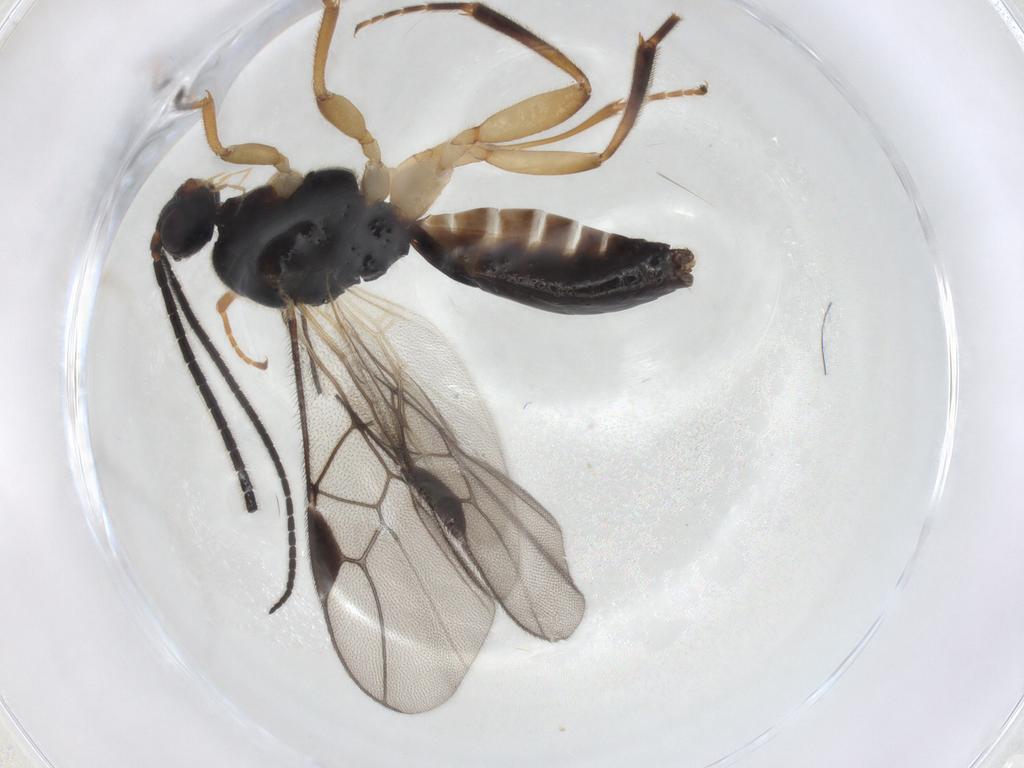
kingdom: Animalia
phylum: Arthropoda
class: Insecta
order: Hymenoptera
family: Braconidae
